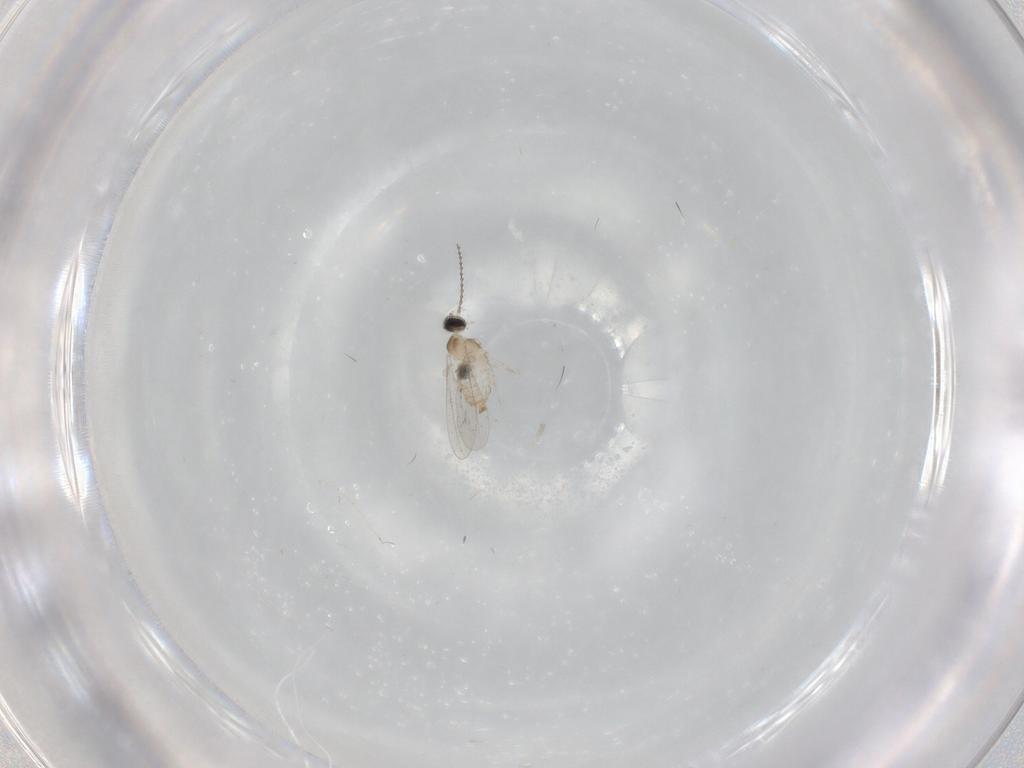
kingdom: Animalia
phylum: Arthropoda
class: Insecta
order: Diptera
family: Cecidomyiidae
